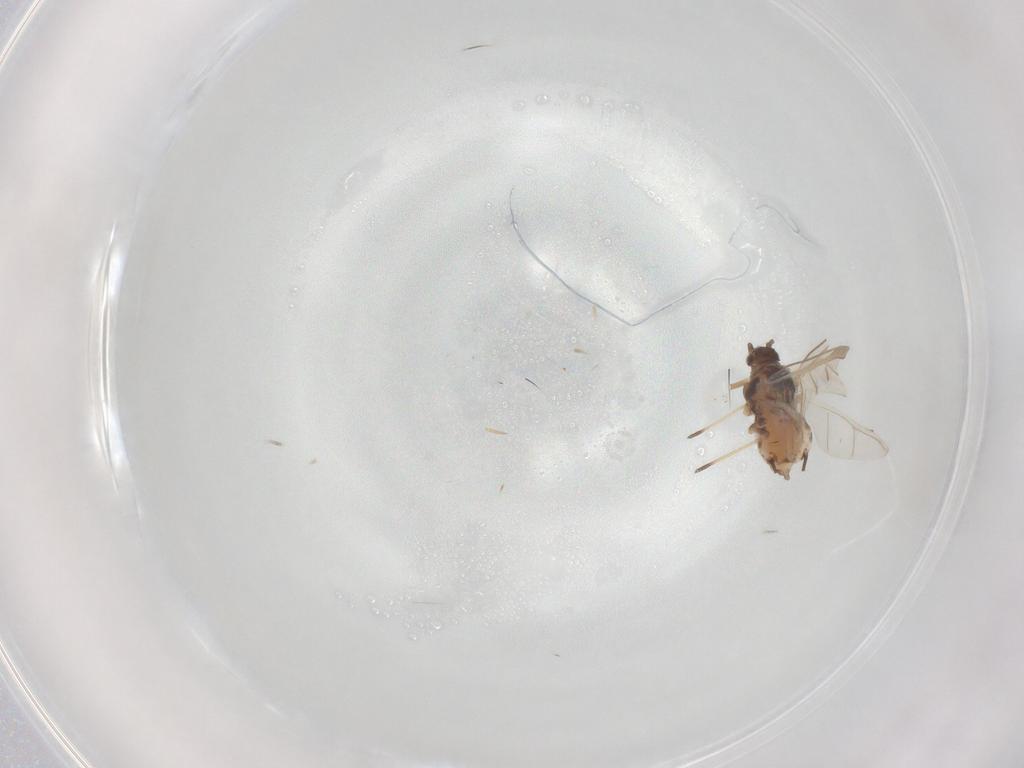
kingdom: Animalia
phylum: Arthropoda
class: Insecta
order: Hemiptera
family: Aphididae
